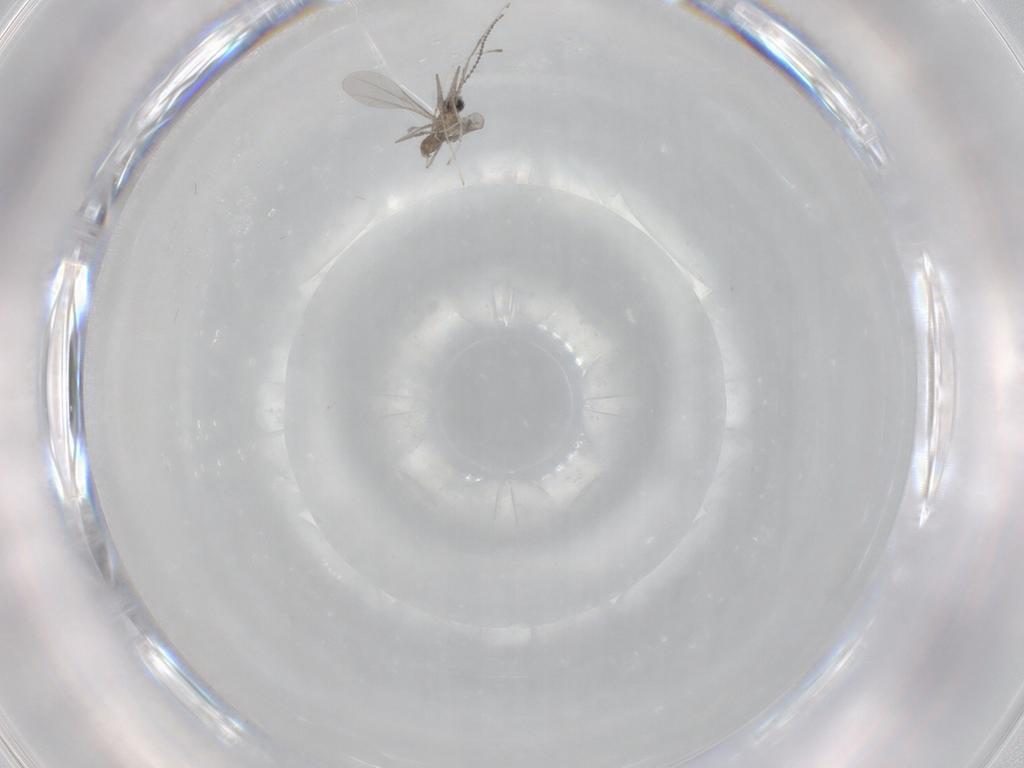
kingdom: Animalia
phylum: Arthropoda
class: Insecta
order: Diptera
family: Cecidomyiidae
